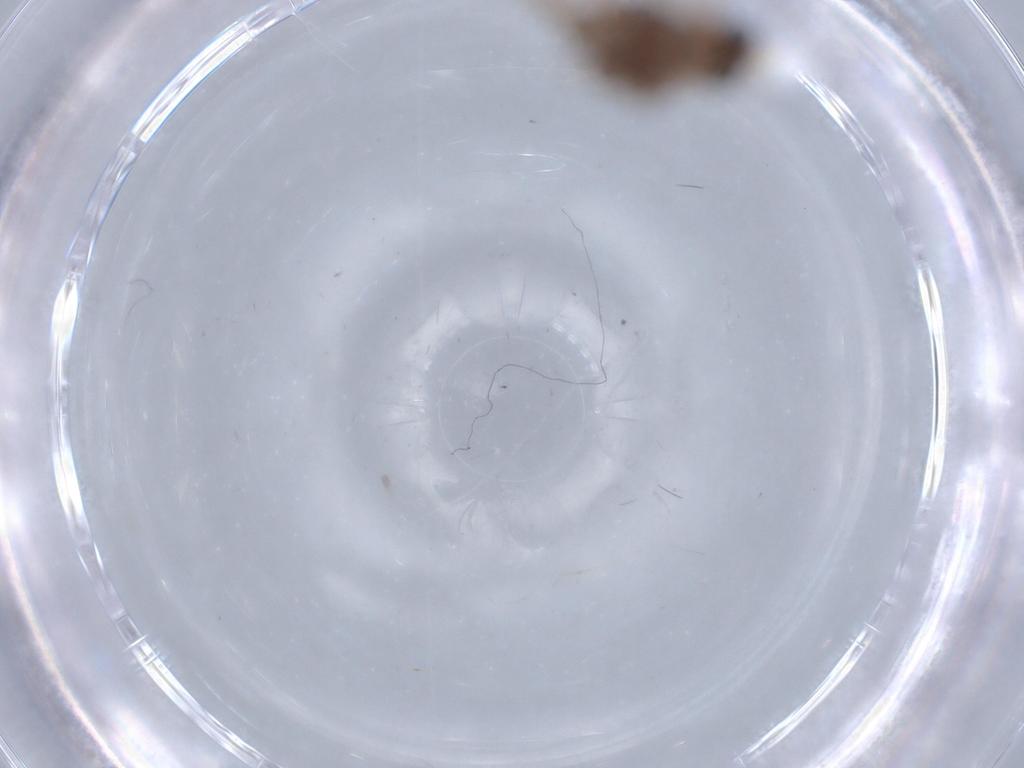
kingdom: Animalia
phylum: Arthropoda
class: Insecta
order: Diptera
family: Chironomidae
